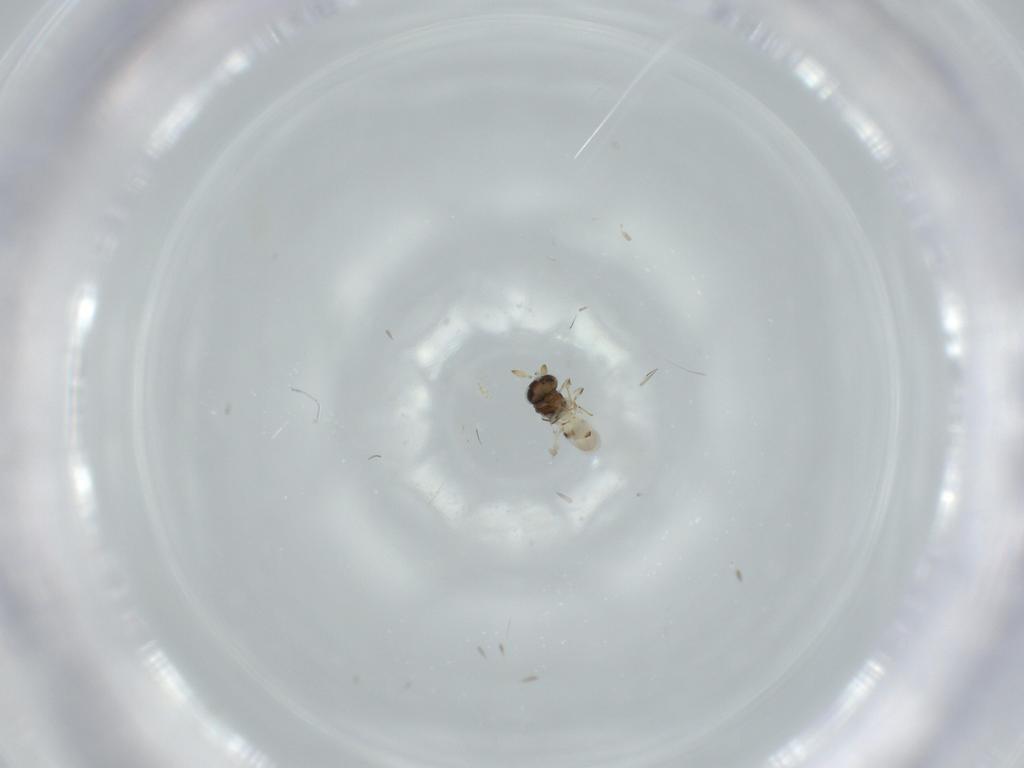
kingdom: Animalia
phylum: Arthropoda
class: Insecta
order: Hymenoptera
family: Scelionidae
